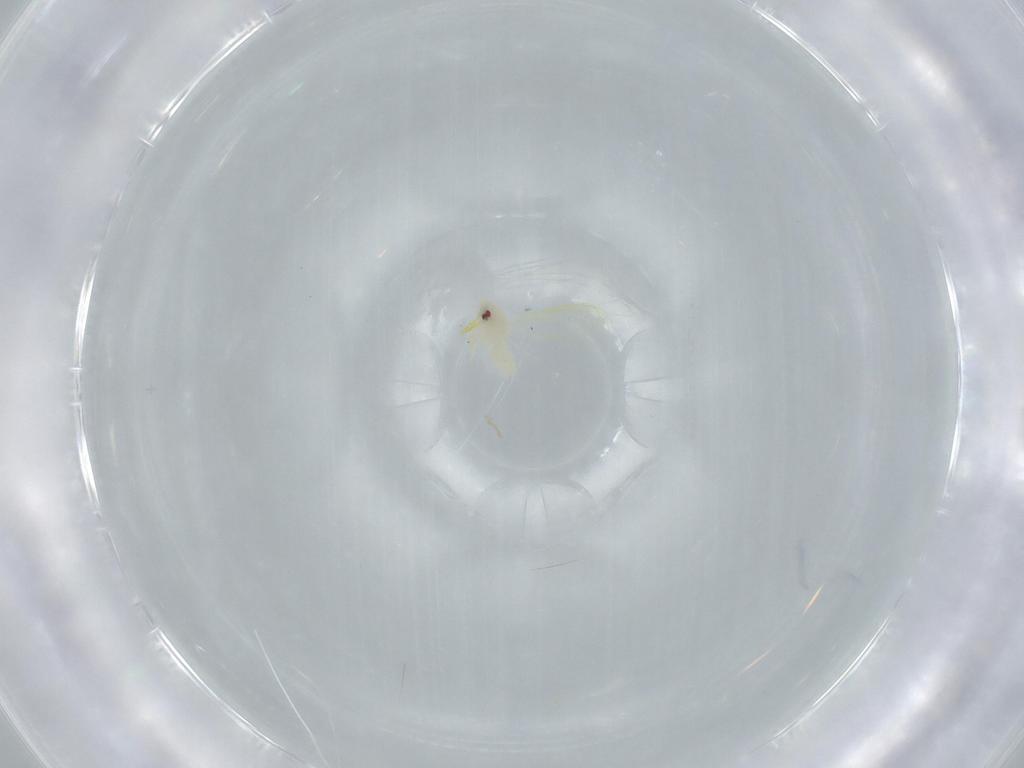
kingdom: Animalia
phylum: Arthropoda
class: Insecta
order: Hemiptera
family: Aleyrodidae
